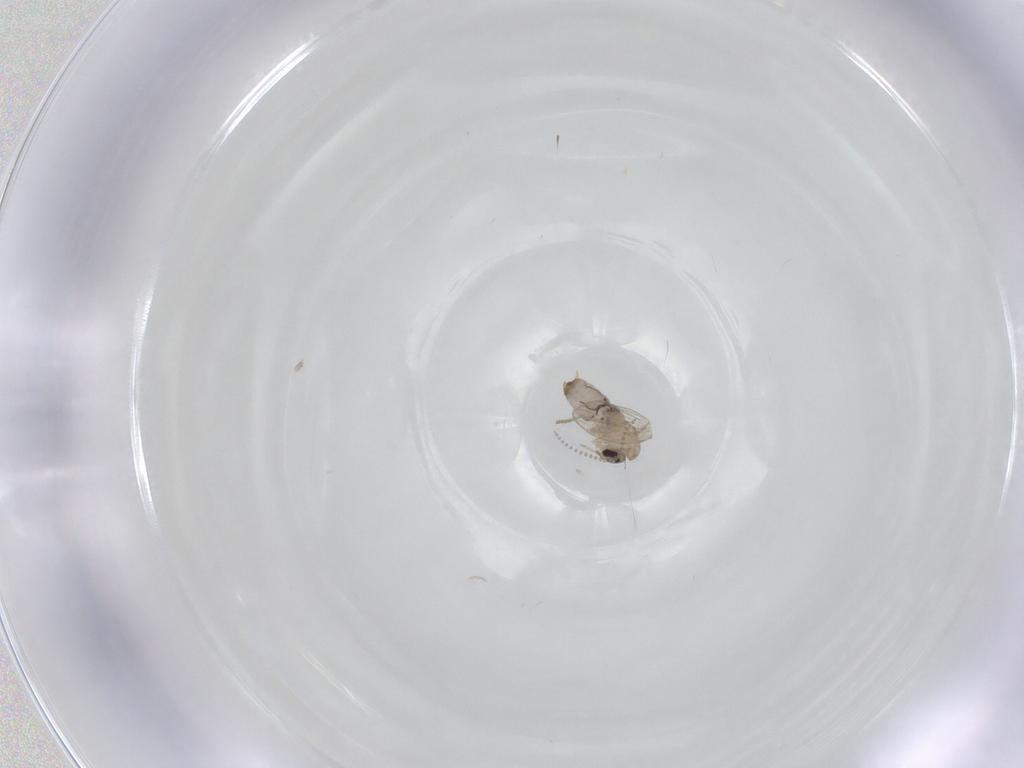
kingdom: Animalia
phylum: Arthropoda
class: Insecta
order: Diptera
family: Psychodidae
